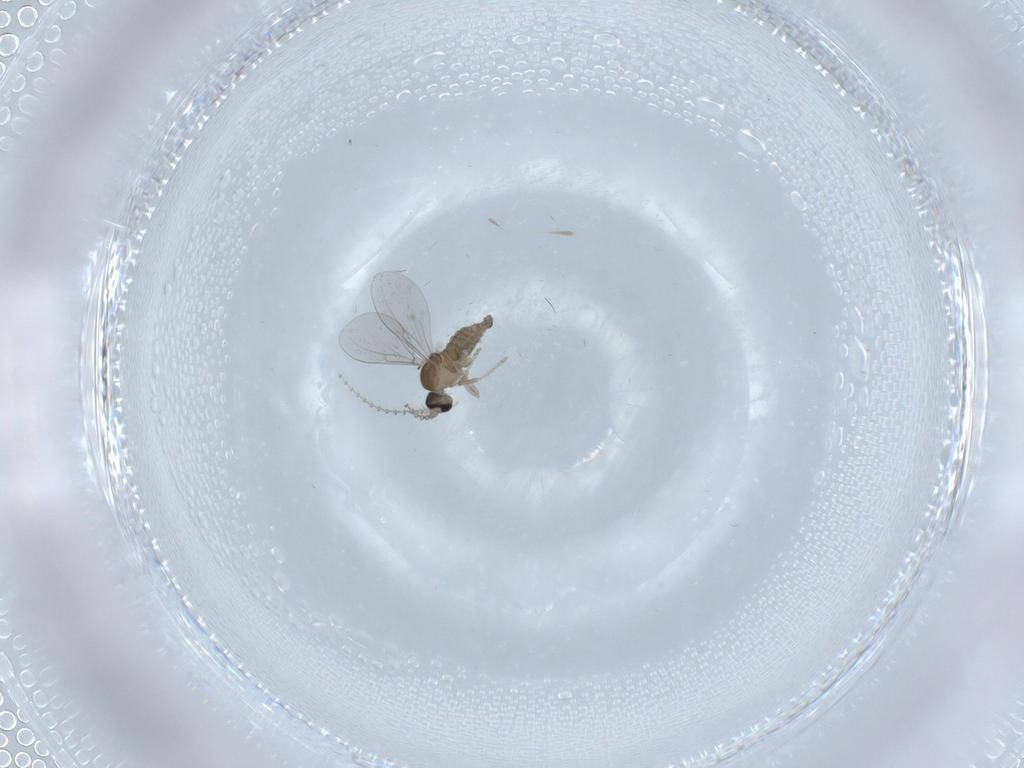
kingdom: Animalia
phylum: Arthropoda
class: Insecta
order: Diptera
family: Cecidomyiidae
